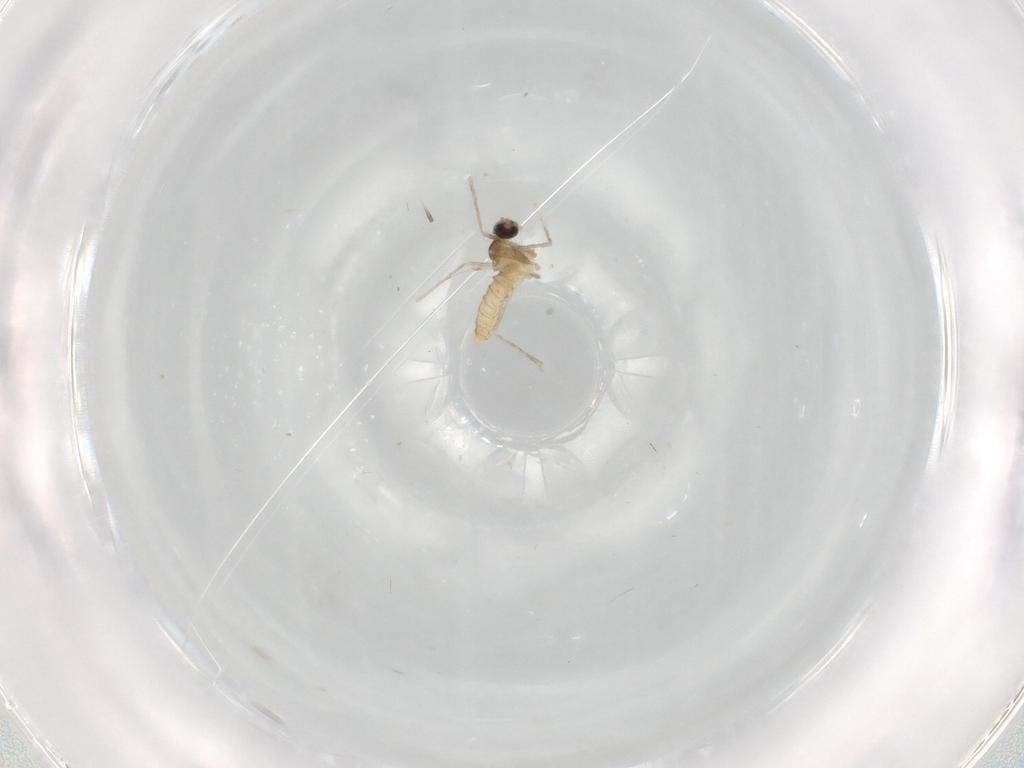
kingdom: Animalia
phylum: Arthropoda
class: Insecta
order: Diptera
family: Cecidomyiidae
